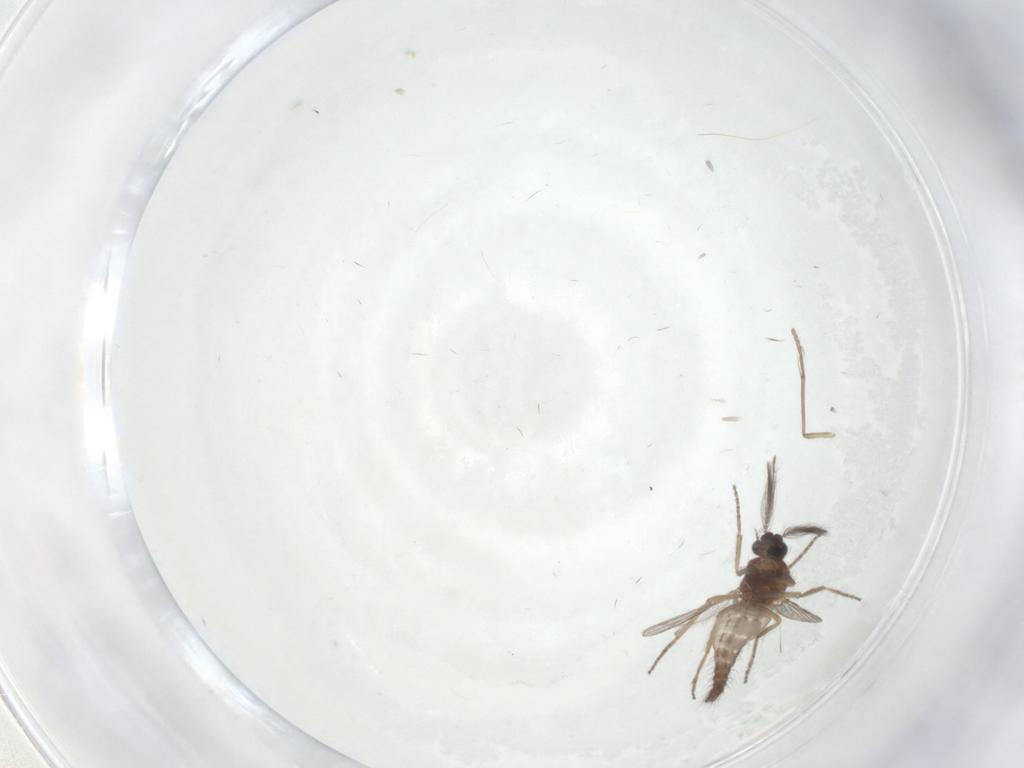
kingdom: Animalia
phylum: Arthropoda
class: Insecta
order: Diptera
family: Ceratopogonidae
